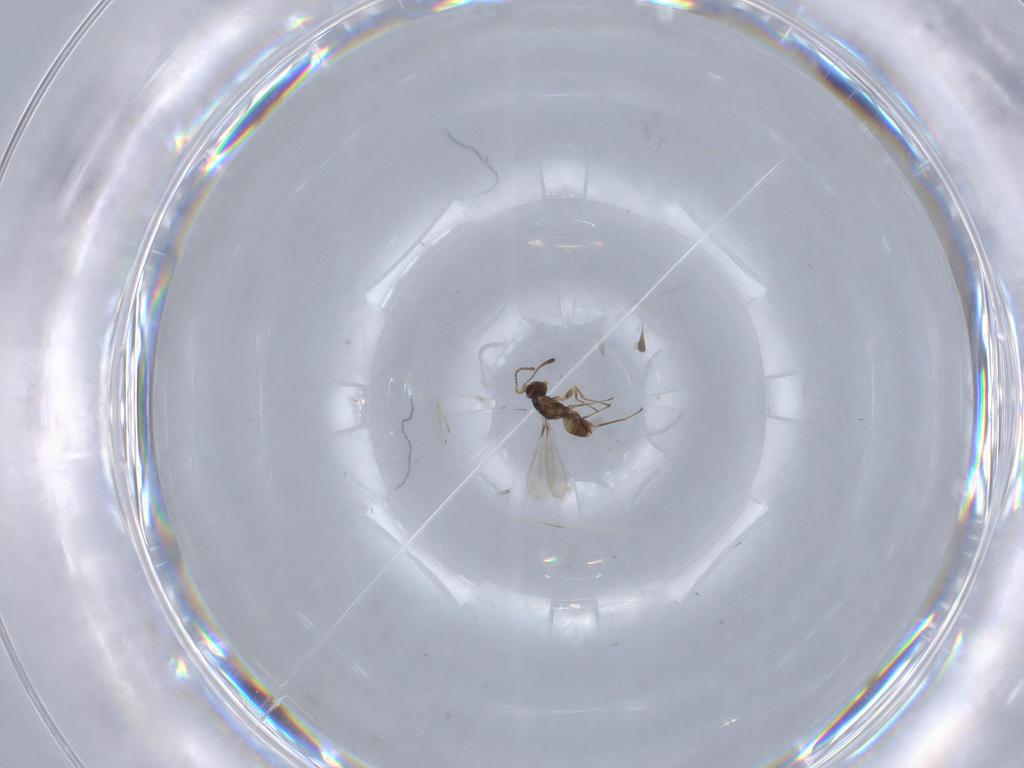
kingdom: Animalia
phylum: Arthropoda
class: Insecta
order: Hymenoptera
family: Mymaridae
